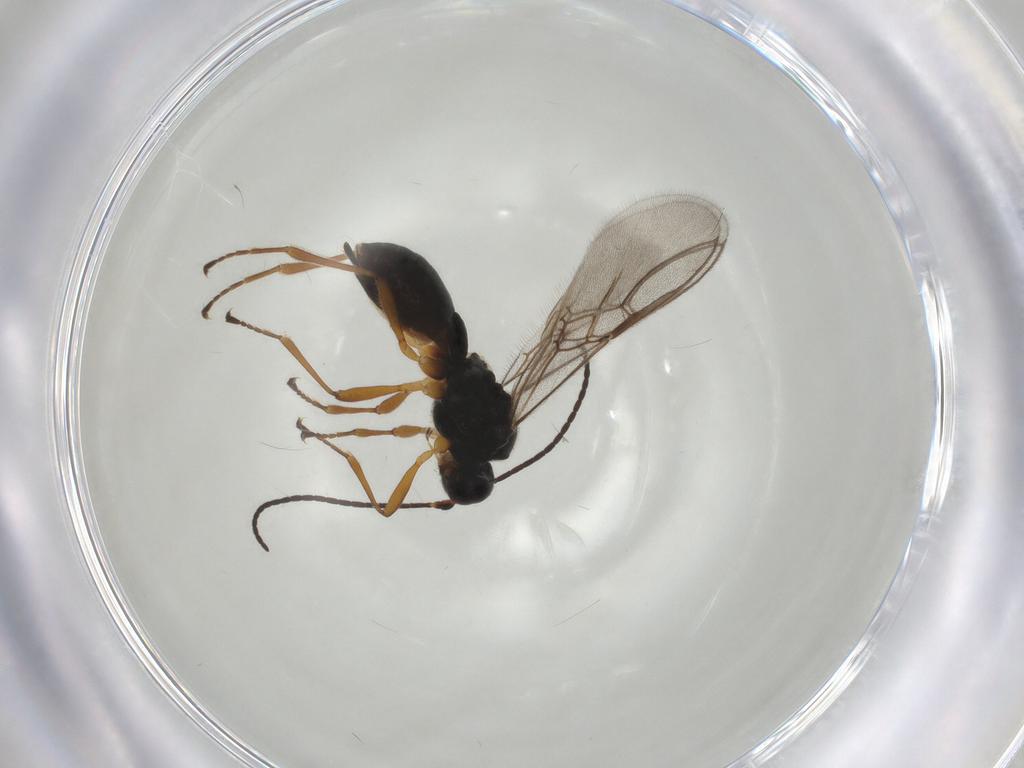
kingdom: Animalia
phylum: Arthropoda
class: Insecta
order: Hymenoptera
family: Braconidae
